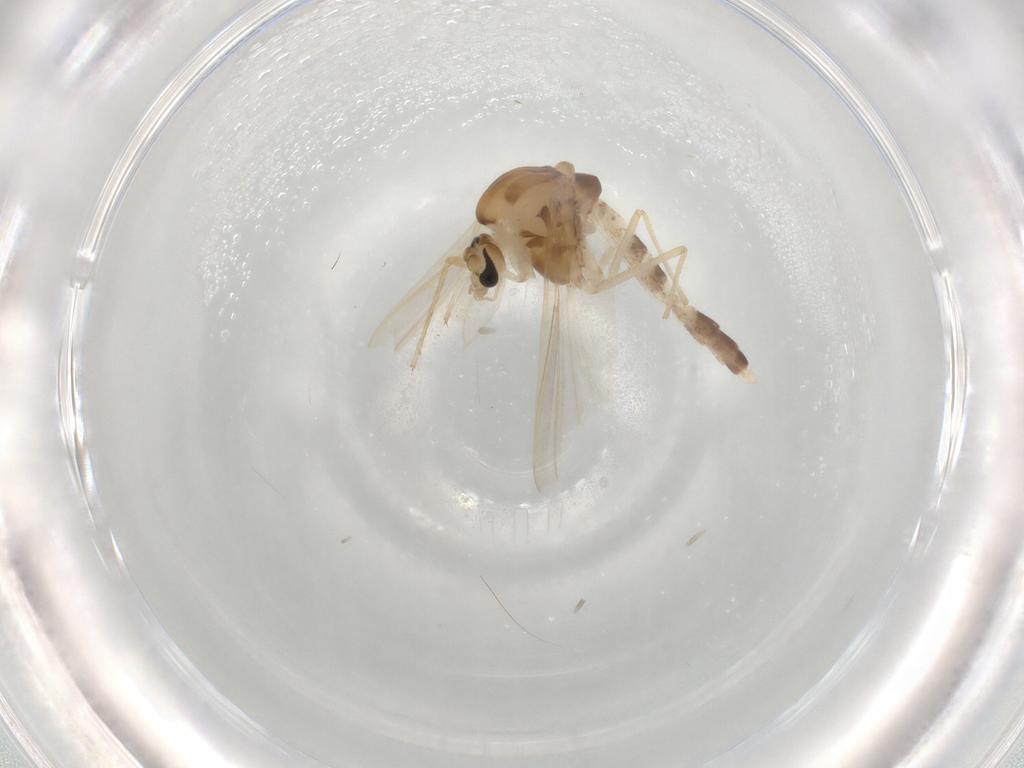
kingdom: Animalia
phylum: Arthropoda
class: Insecta
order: Diptera
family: Chironomidae
